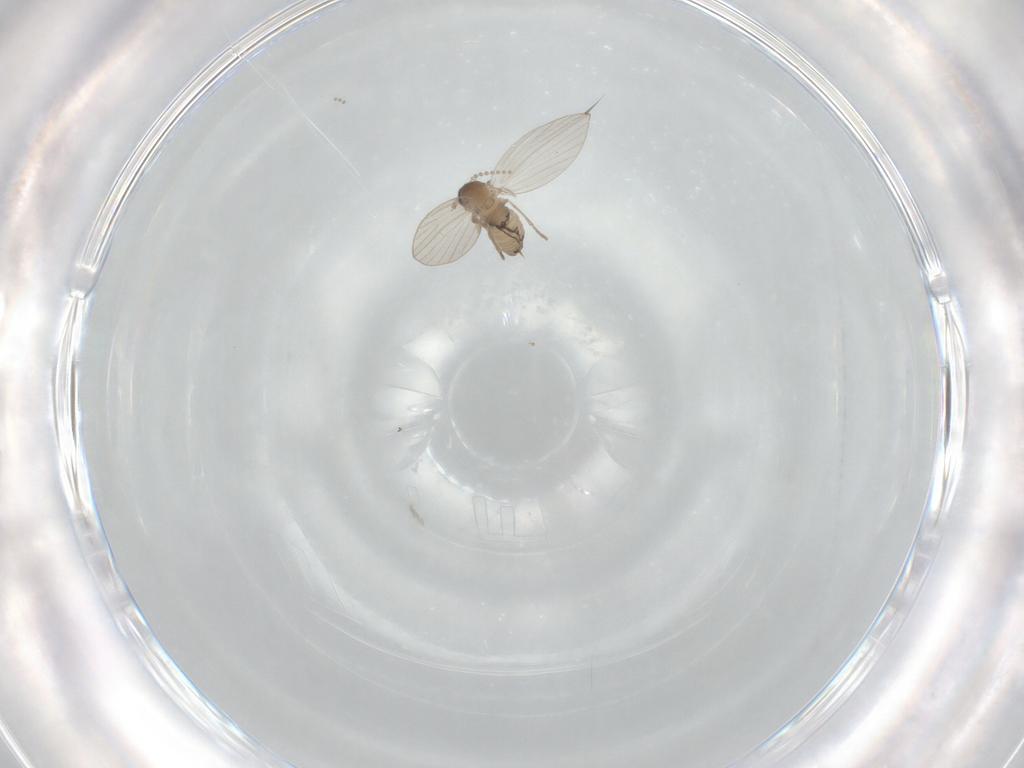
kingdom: Animalia
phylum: Arthropoda
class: Insecta
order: Diptera
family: Psychodidae
